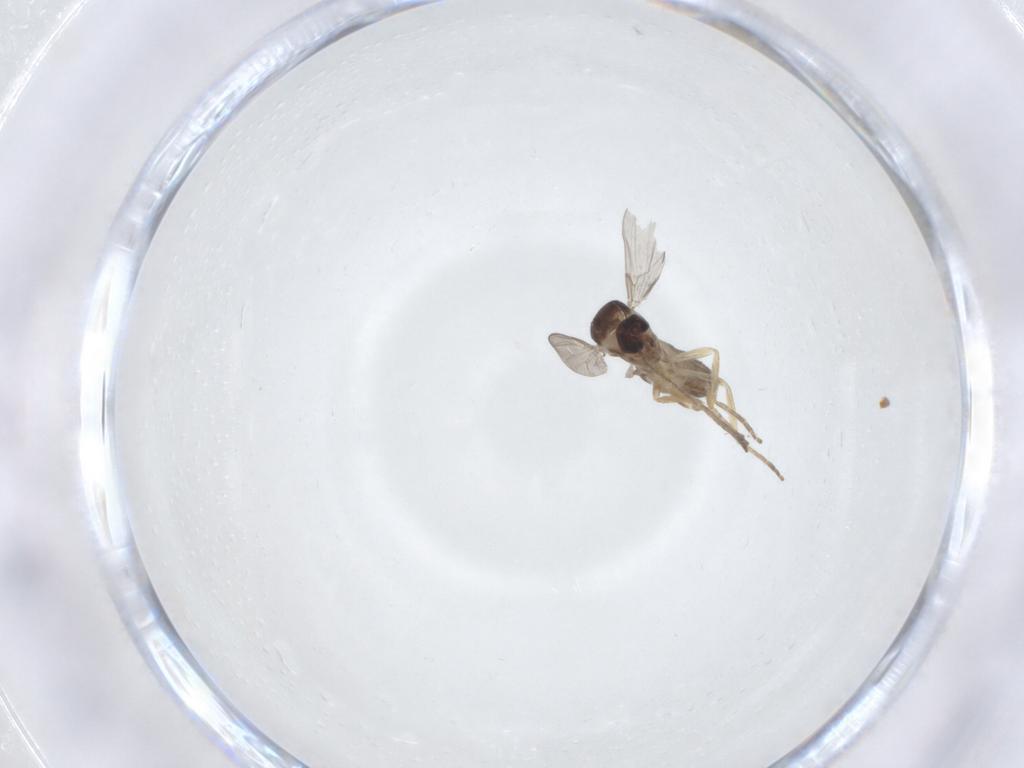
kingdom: Animalia
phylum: Arthropoda
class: Insecta
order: Diptera
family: Ceratopogonidae
